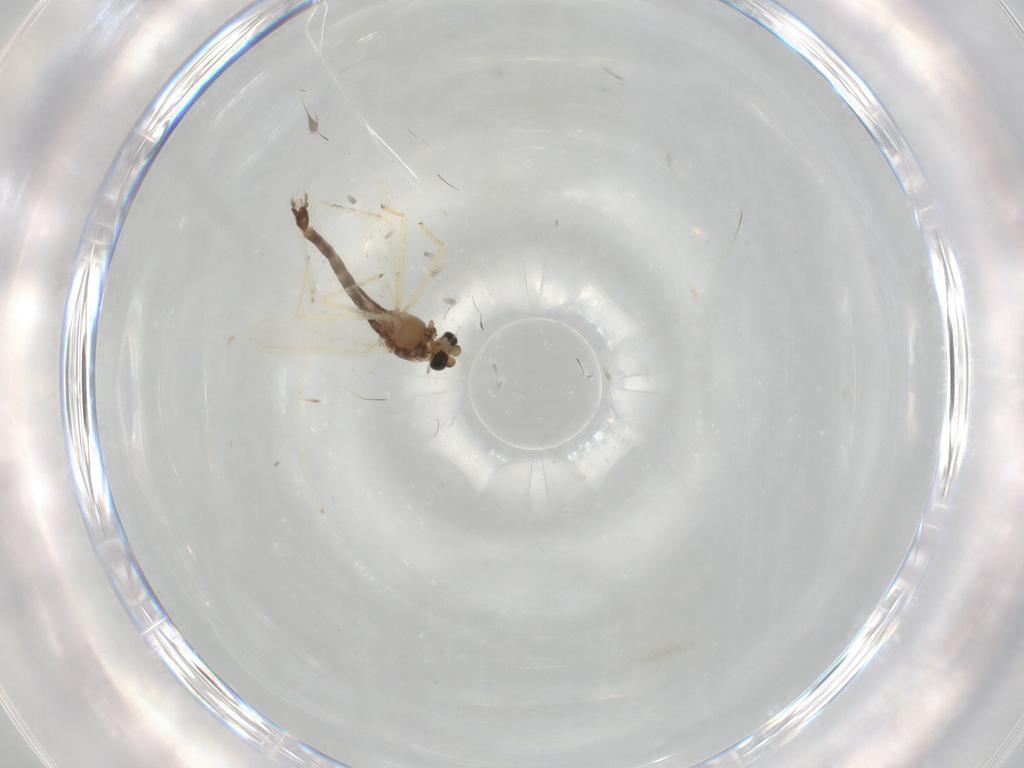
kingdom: Animalia
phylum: Arthropoda
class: Insecta
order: Diptera
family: Chironomidae
